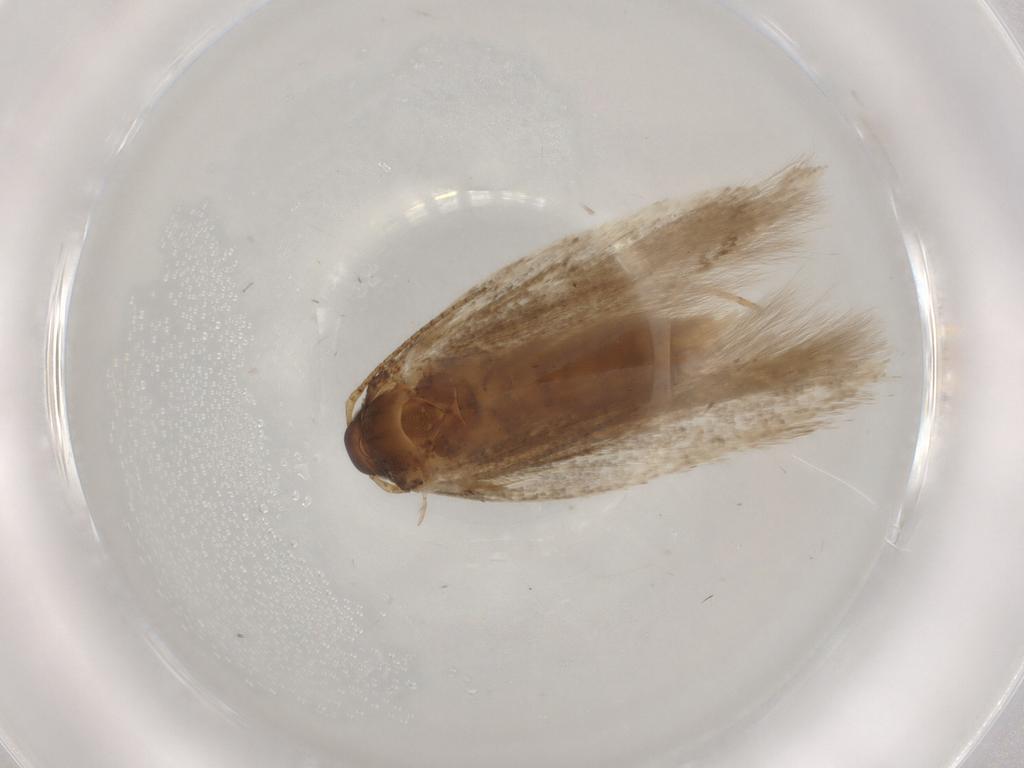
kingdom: Animalia
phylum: Arthropoda
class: Insecta
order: Lepidoptera
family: Gelechiidae
